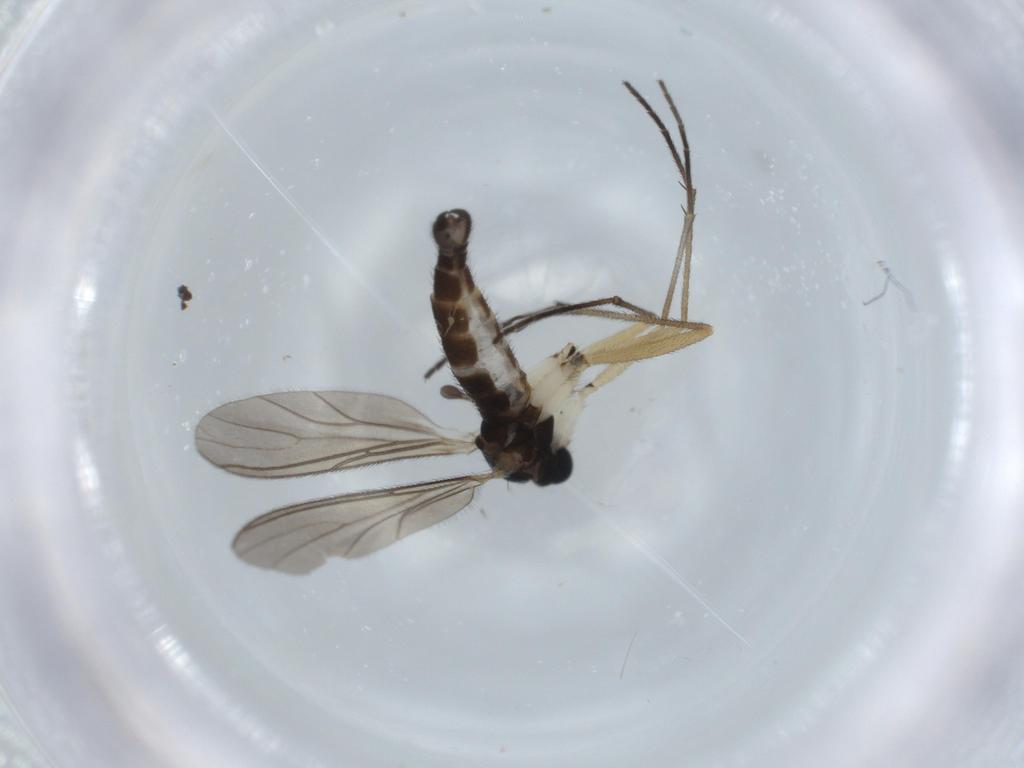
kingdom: Animalia
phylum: Arthropoda
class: Insecta
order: Diptera
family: Sciaridae
